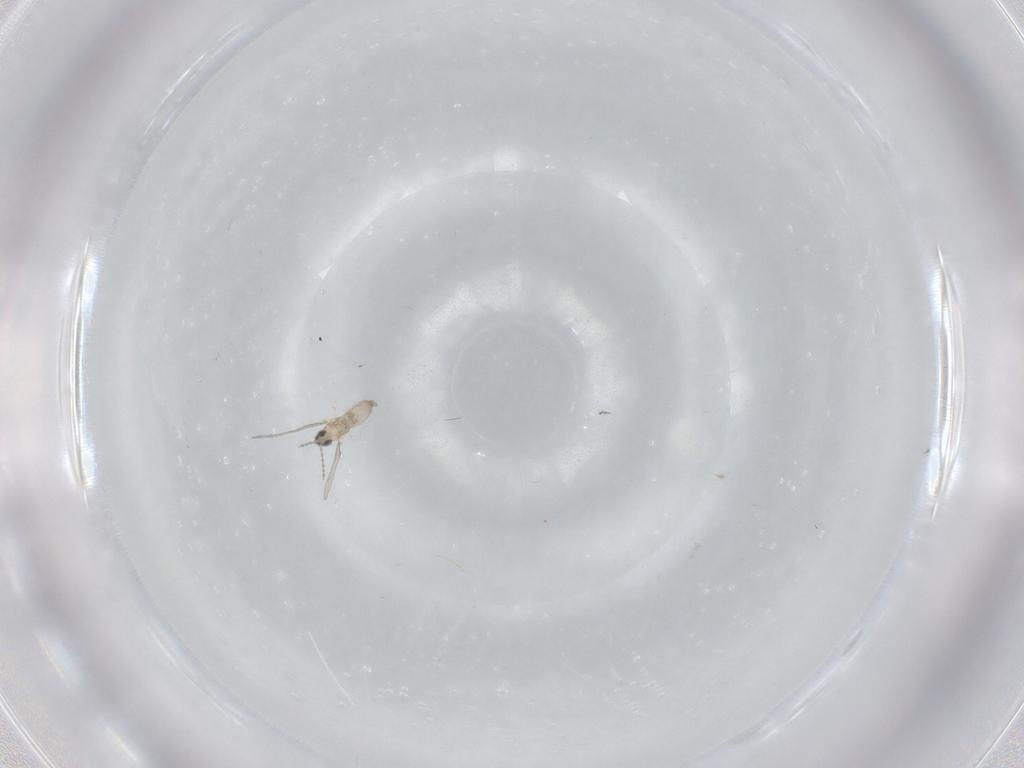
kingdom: Animalia
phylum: Arthropoda
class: Insecta
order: Diptera
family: Cecidomyiidae
